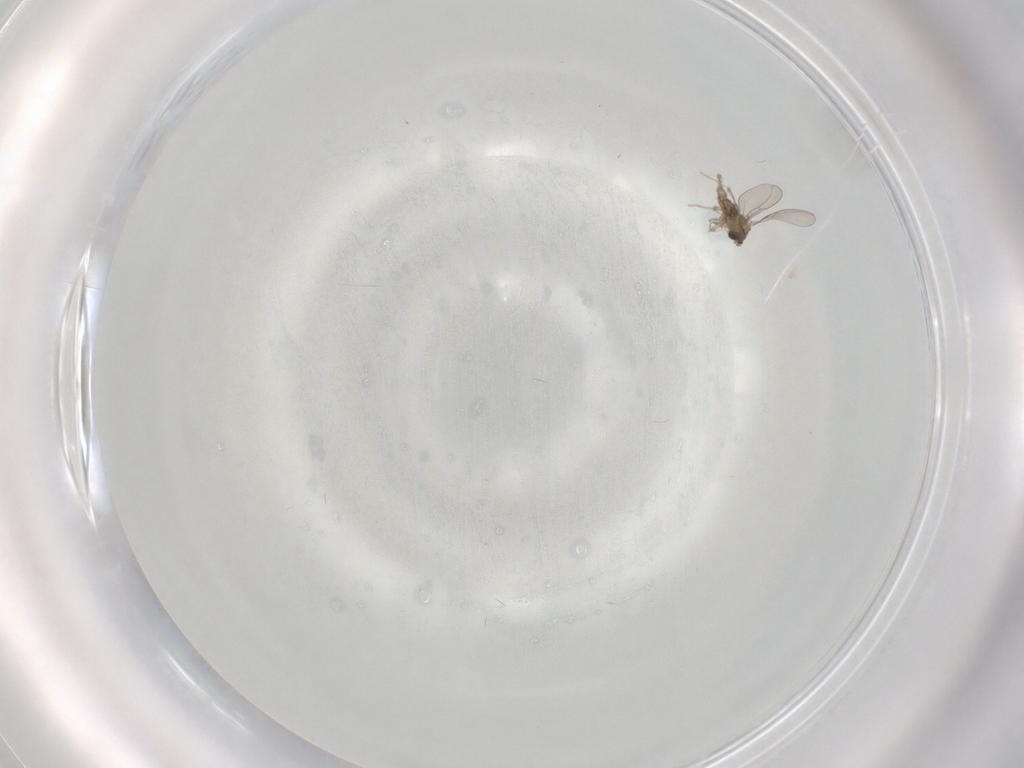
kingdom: Animalia
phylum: Arthropoda
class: Insecta
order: Diptera
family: Cecidomyiidae
